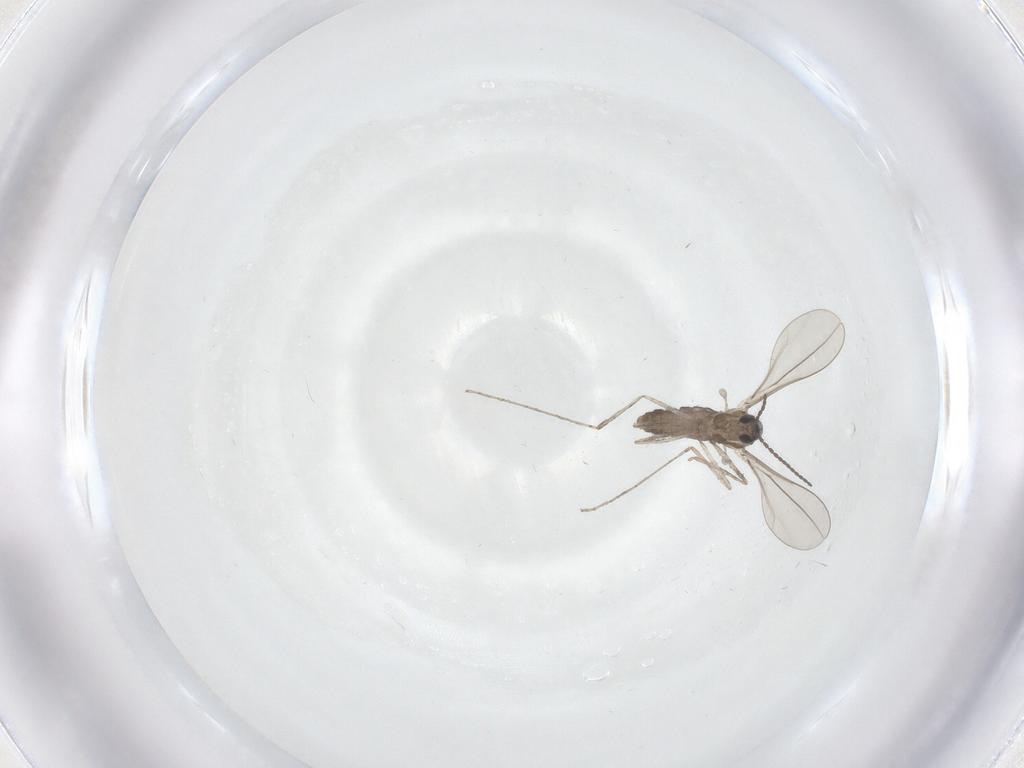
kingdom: Animalia
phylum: Arthropoda
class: Insecta
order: Diptera
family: Cecidomyiidae
